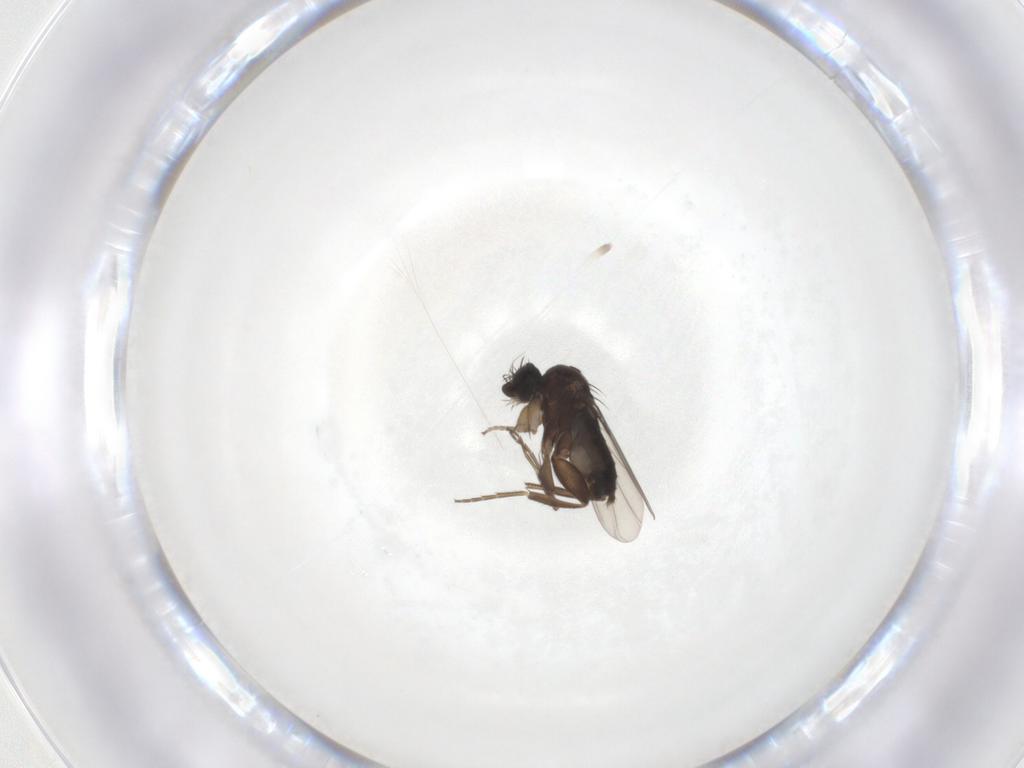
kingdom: Animalia
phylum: Arthropoda
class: Insecta
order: Diptera
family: Phoridae
